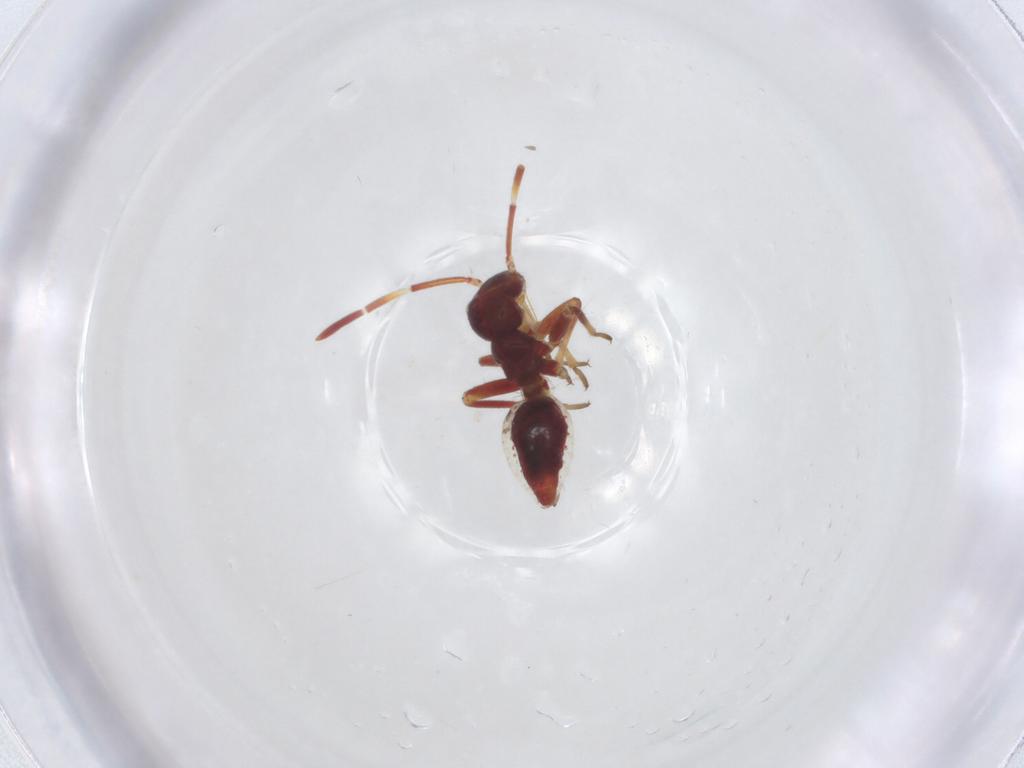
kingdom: Animalia
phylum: Arthropoda
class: Insecta
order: Hemiptera
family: Miridae
